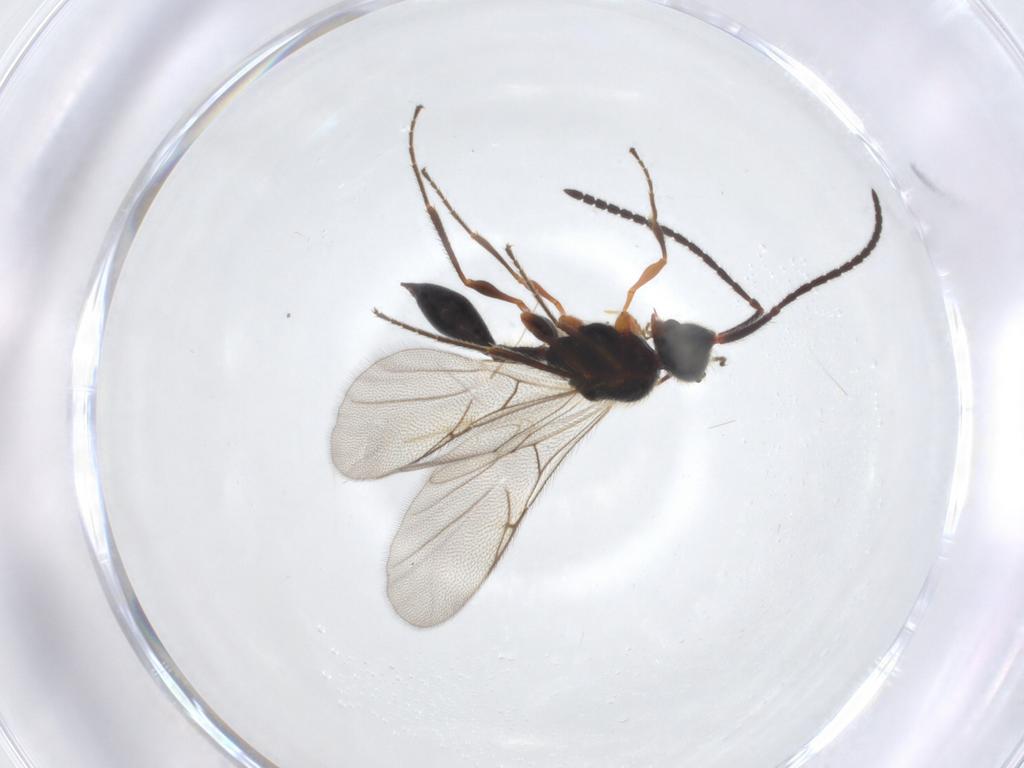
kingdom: Animalia
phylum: Arthropoda
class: Insecta
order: Hymenoptera
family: Diapriidae
